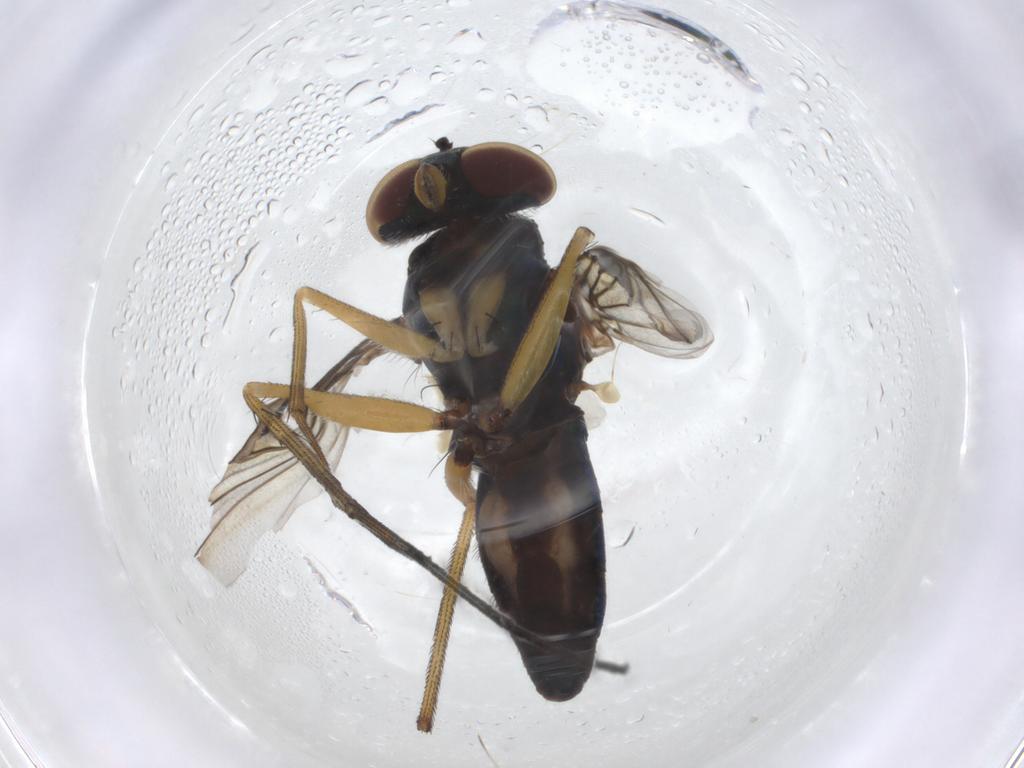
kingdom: Animalia
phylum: Arthropoda
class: Insecta
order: Diptera
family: Dolichopodidae
